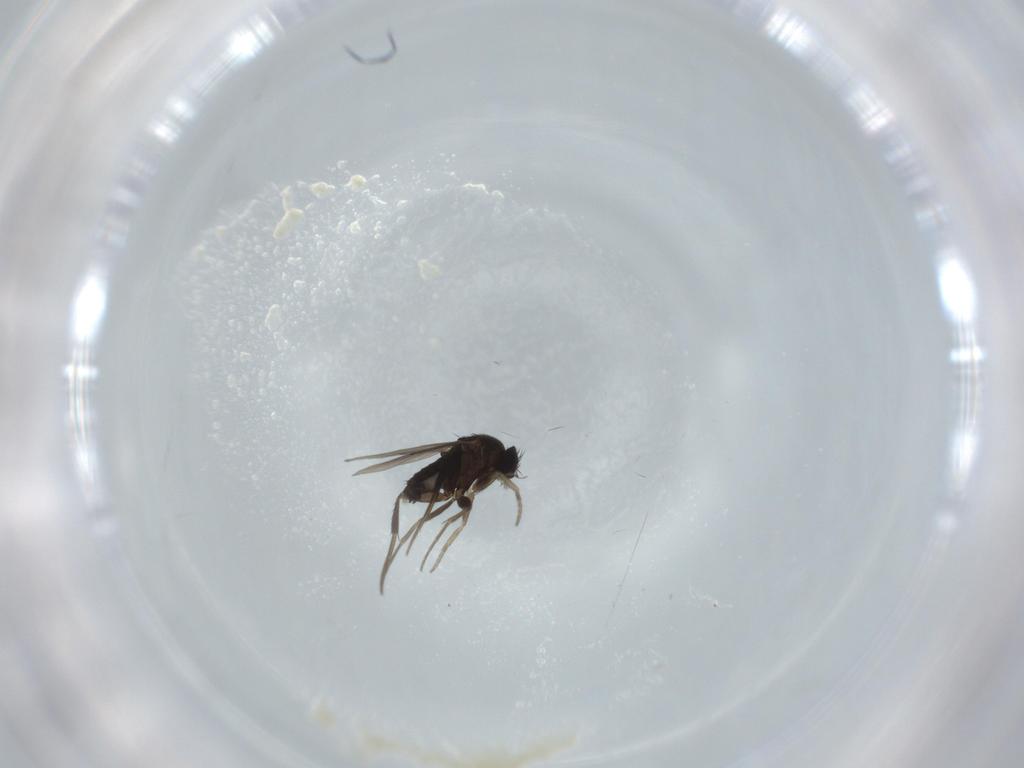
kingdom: Animalia
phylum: Arthropoda
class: Insecta
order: Diptera
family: Phoridae
